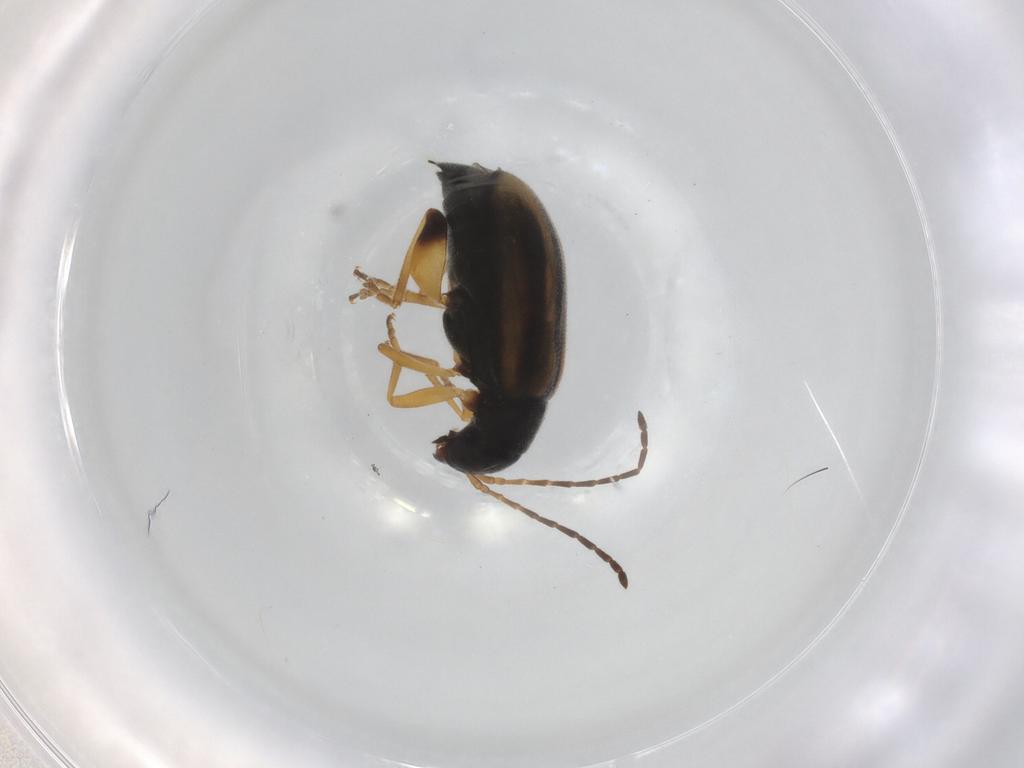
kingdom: Animalia
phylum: Arthropoda
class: Insecta
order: Coleoptera
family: Chrysomelidae
